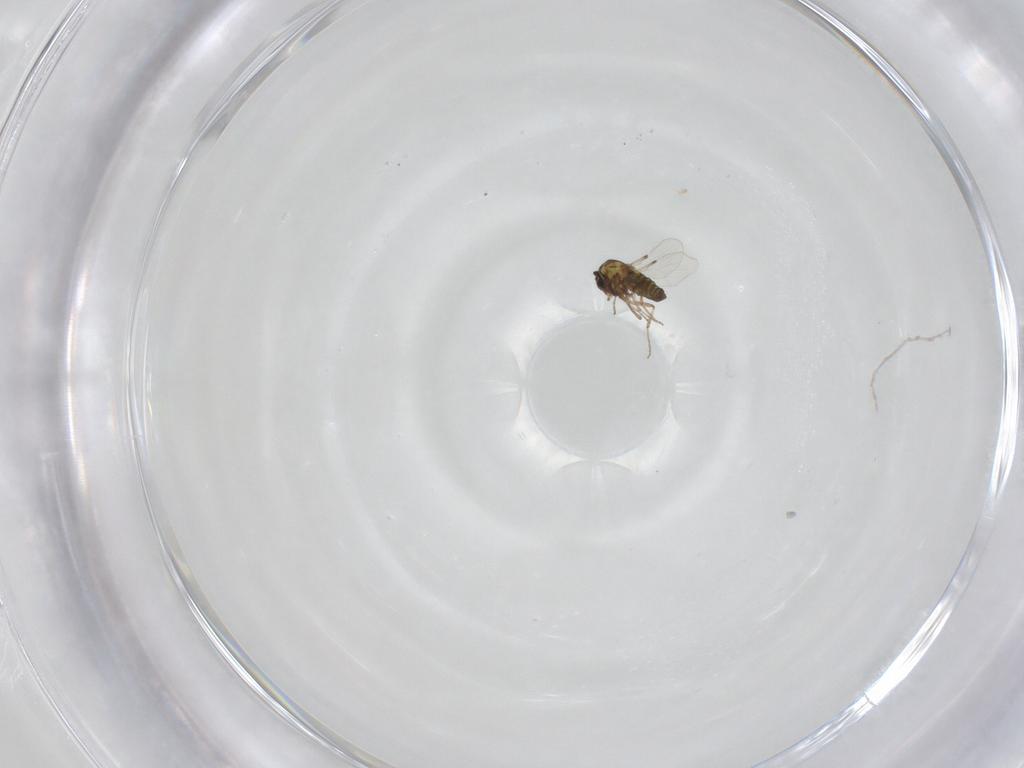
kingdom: Animalia
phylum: Arthropoda
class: Insecta
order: Diptera
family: Ceratopogonidae
